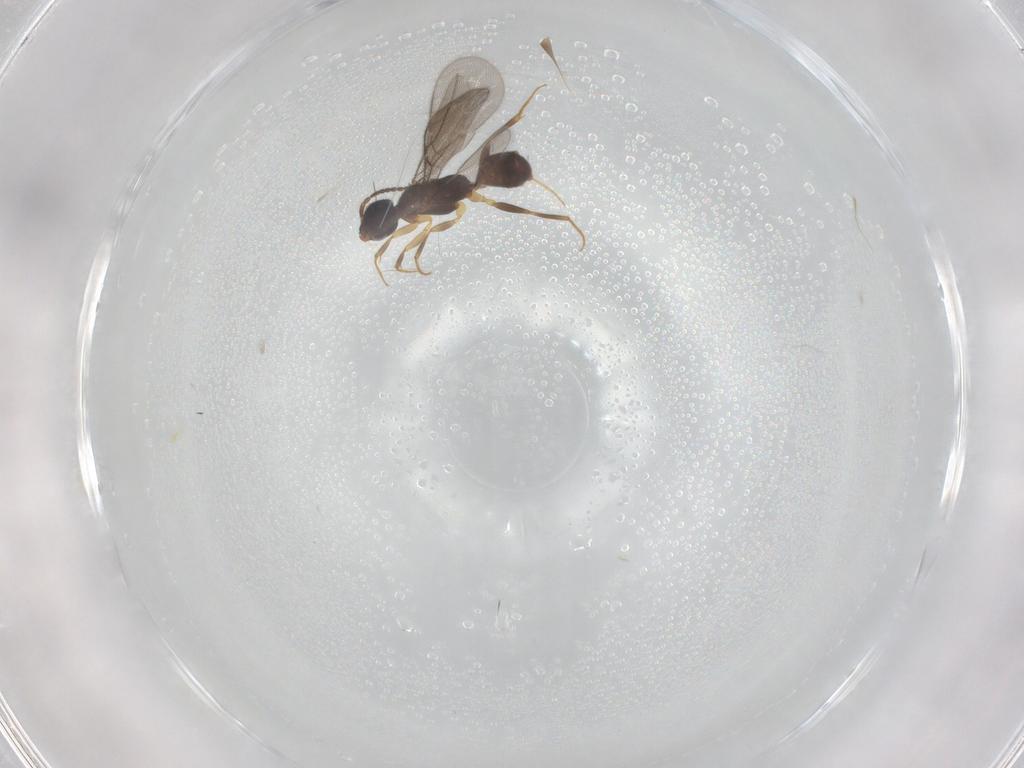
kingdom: Animalia
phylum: Arthropoda
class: Insecta
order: Hymenoptera
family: Bethylidae
